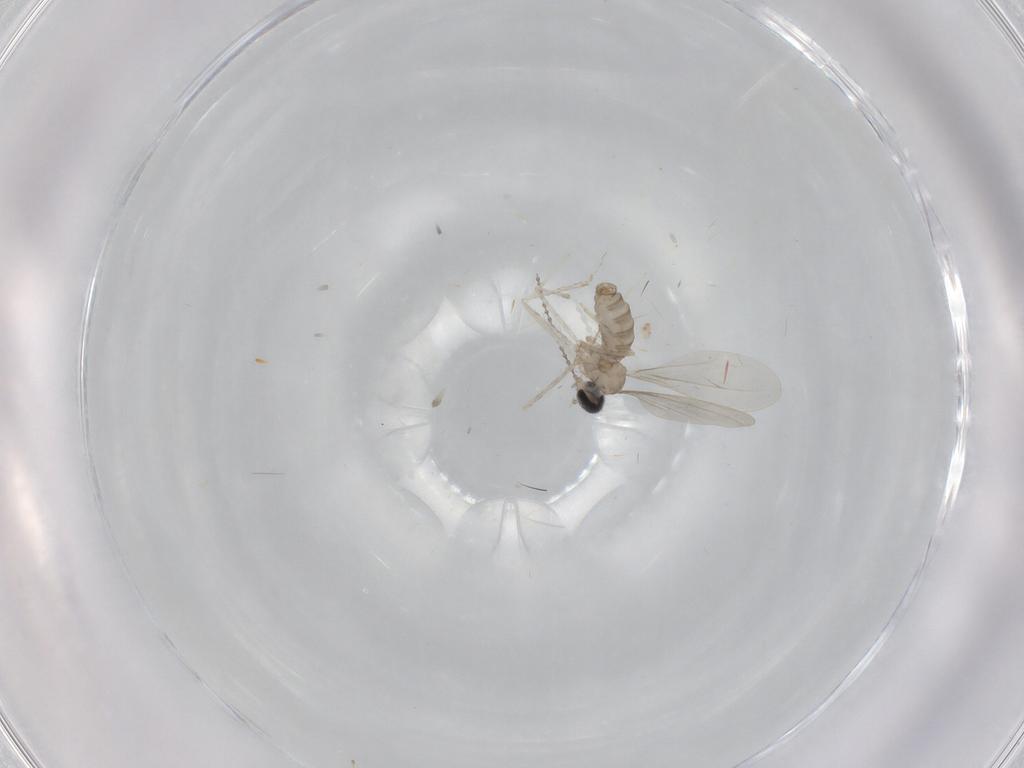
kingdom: Animalia
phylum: Arthropoda
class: Insecta
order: Diptera
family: Cecidomyiidae
